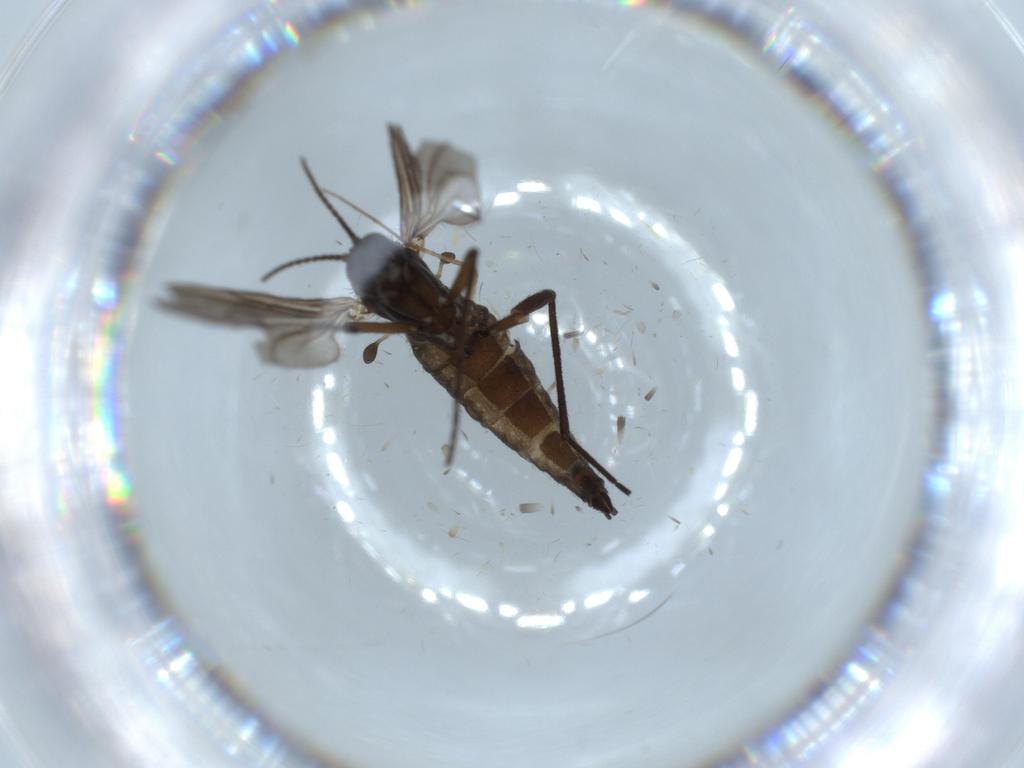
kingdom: Animalia
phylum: Arthropoda
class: Insecta
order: Diptera
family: Sciaridae
